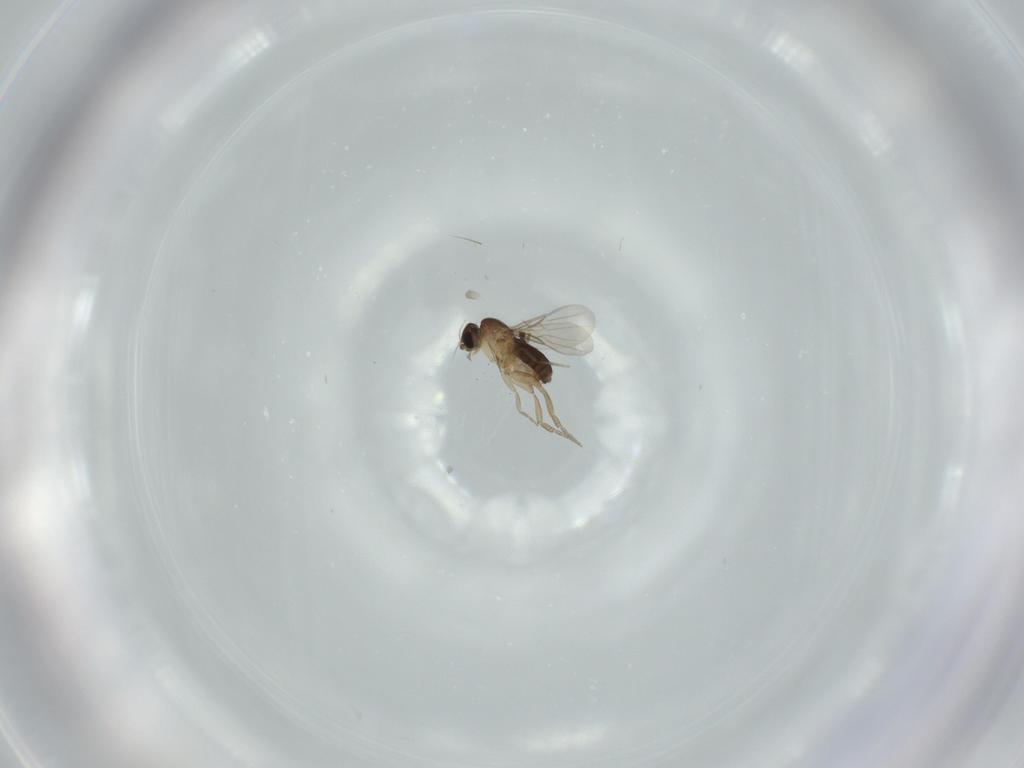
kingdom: Animalia
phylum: Arthropoda
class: Insecta
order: Diptera
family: Phoridae
